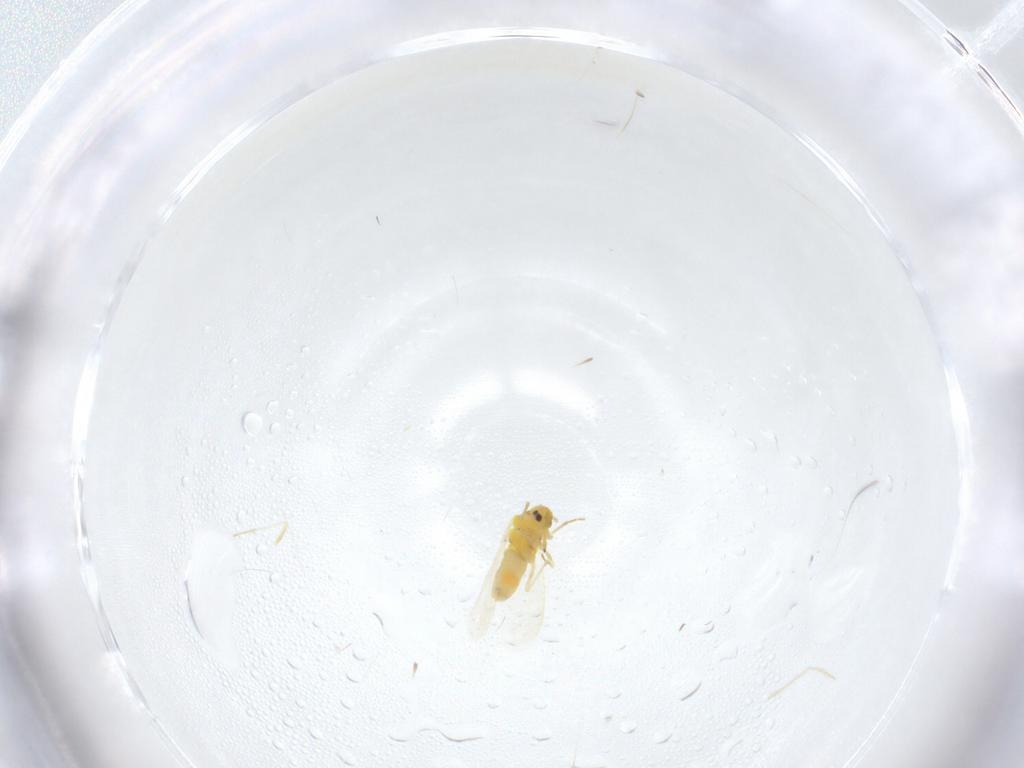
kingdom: Animalia
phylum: Arthropoda
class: Insecta
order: Hemiptera
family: Aleyrodidae
